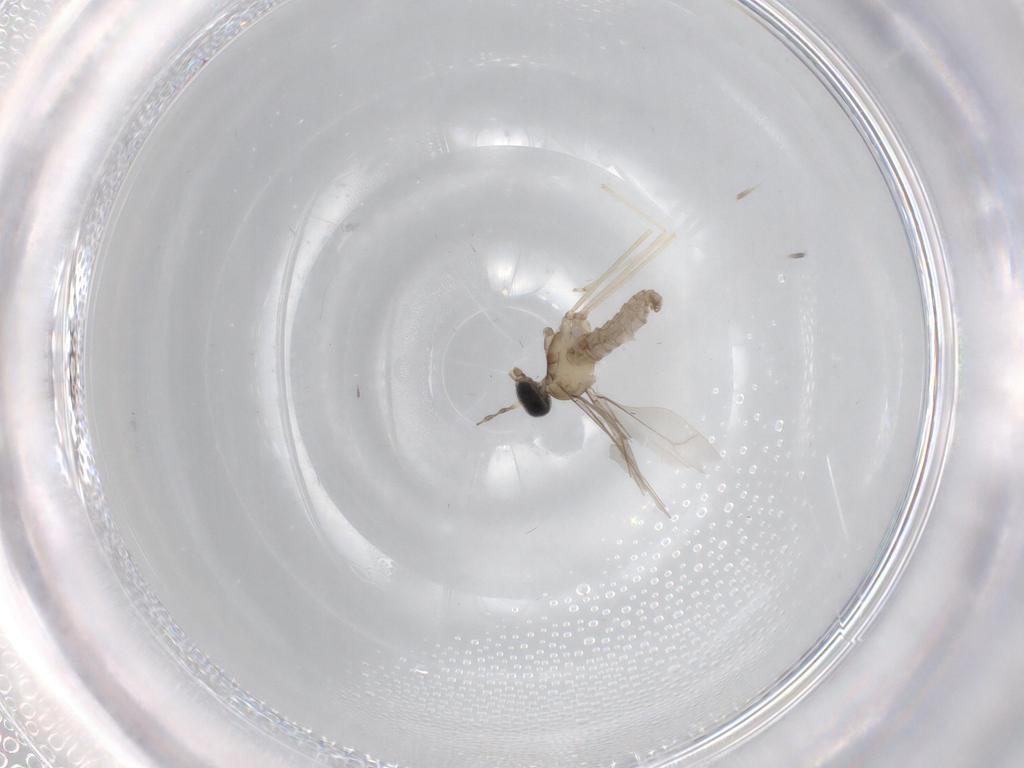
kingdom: Animalia
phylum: Arthropoda
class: Insecta
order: Diptera
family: Cecidomyiidae
